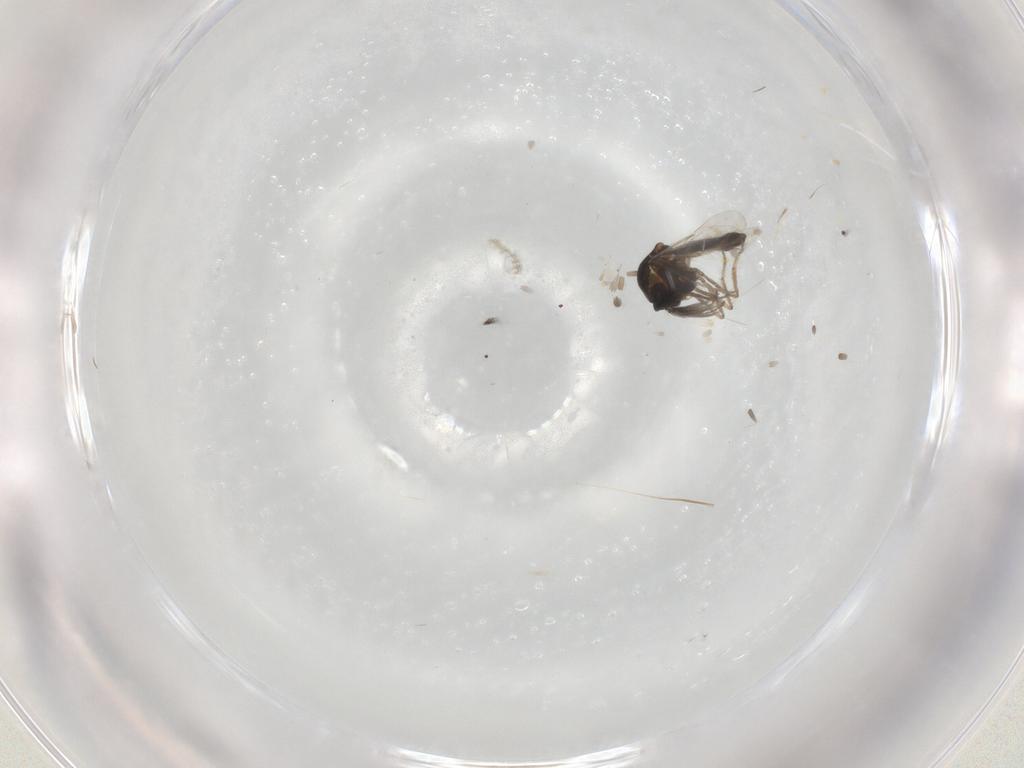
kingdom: Animalia
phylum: Arthropoda
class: Insecta
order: Diptera
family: Ceratopogonidae
